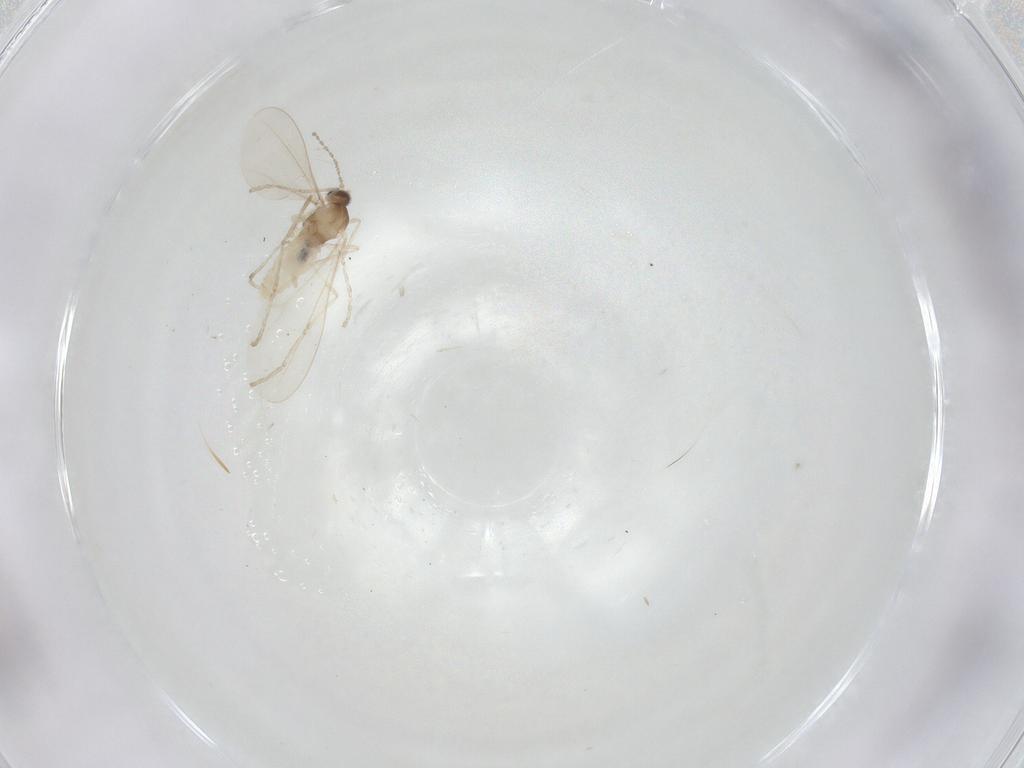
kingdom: Animalia
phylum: Arthropoda
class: Insecta
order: Diptera
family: Cecidomyiidae
